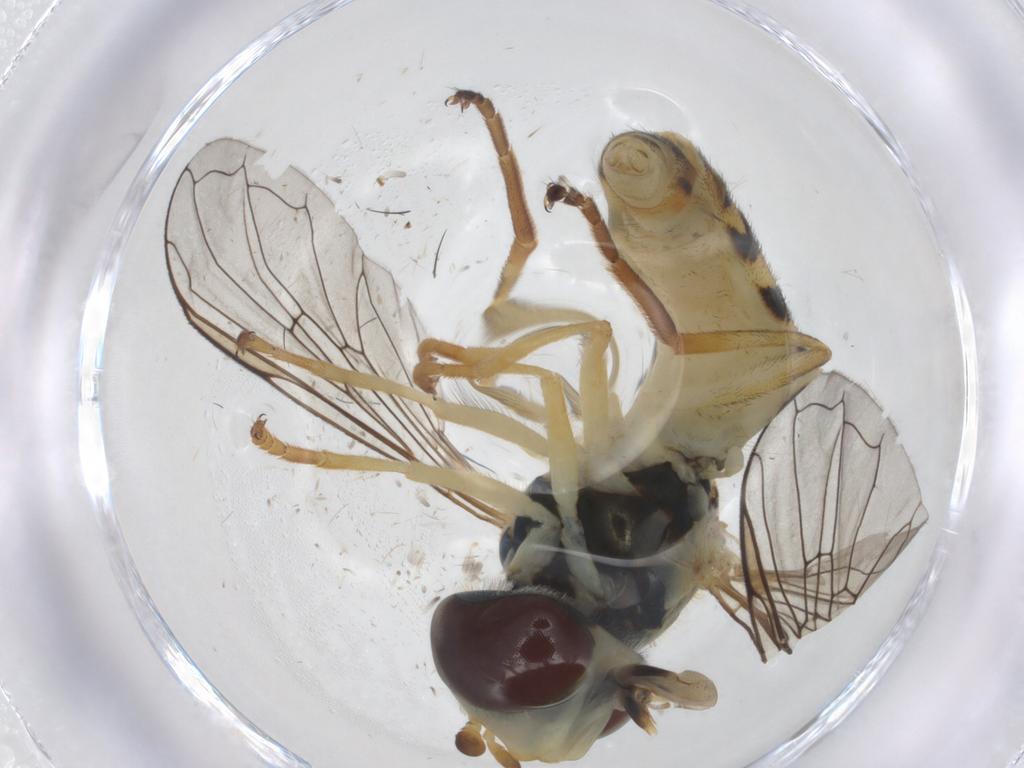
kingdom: Animalia
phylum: Arthropoda
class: Insecta
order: Diptera
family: Syrphidae
